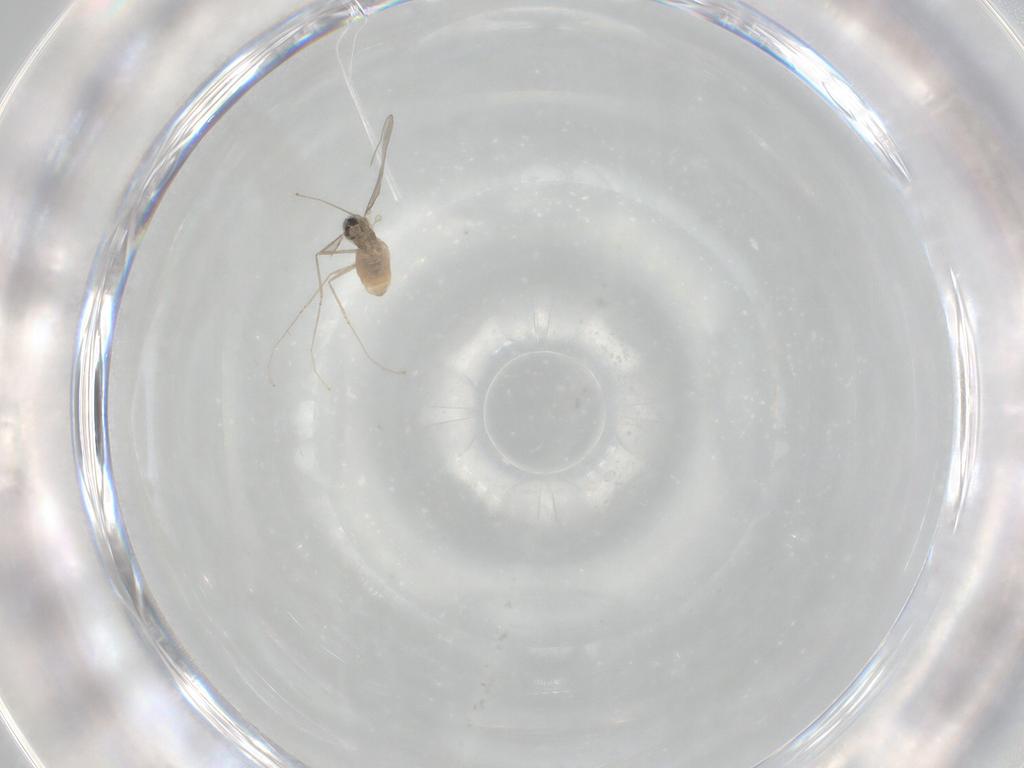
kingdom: Animalia
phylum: Arthropoda
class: Insecta
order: Diptera
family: Cecidomyiidae
